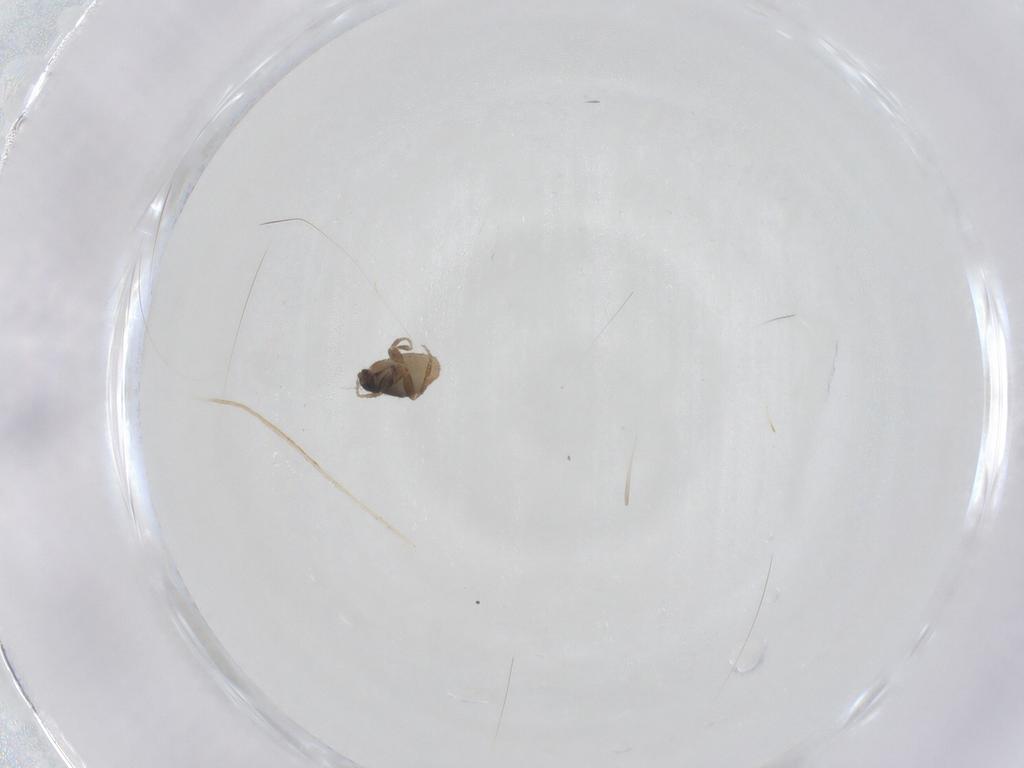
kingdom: Animalia
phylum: Arthropoda
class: Insecta
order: Diptera
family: Phoridae
